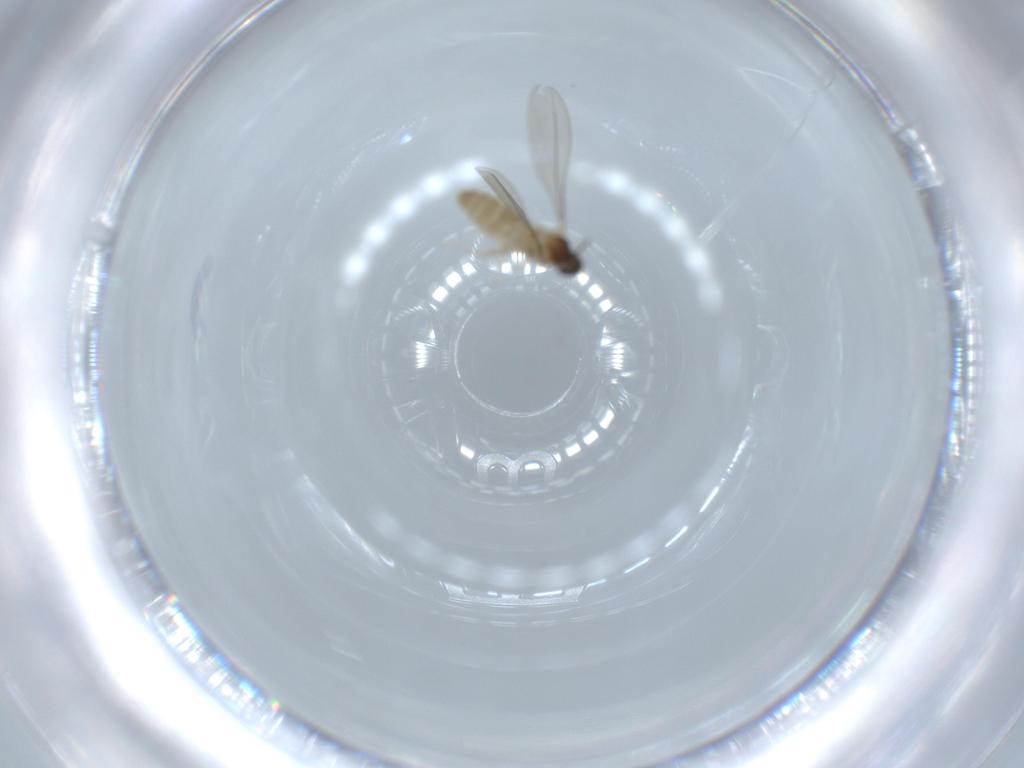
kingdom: Animalia
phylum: Arthropoda
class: Insecta
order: Diptera
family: Cecidomyiidae
